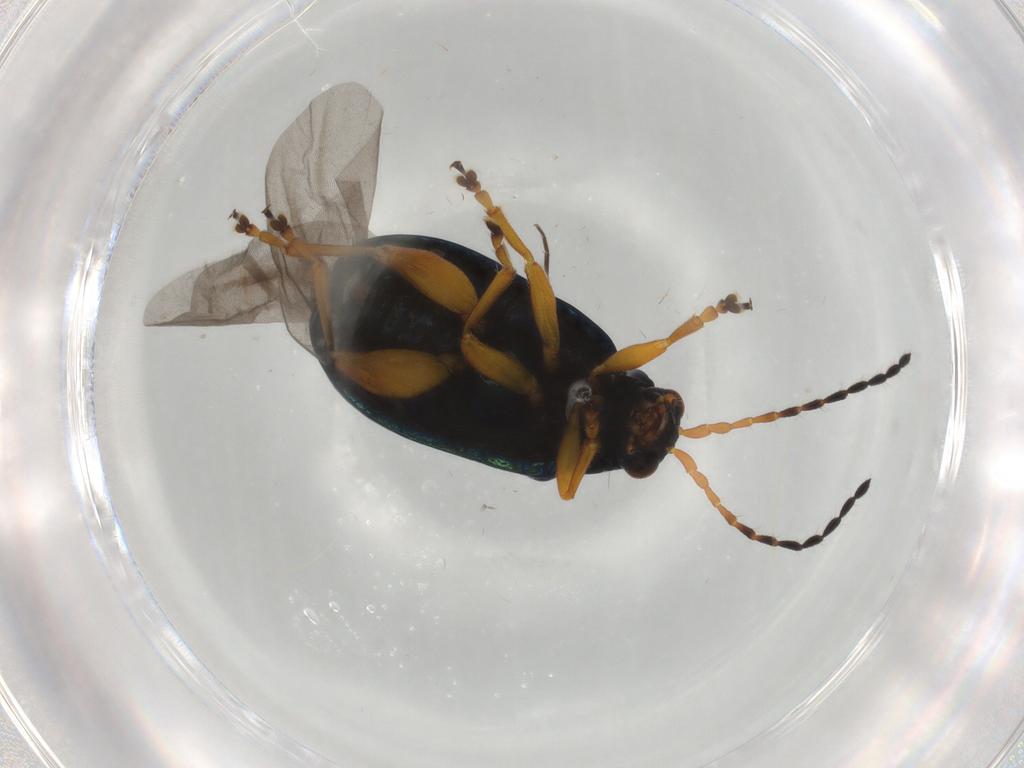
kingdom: Animalia
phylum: Arthropoda
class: Insecta
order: Coleoptera
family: Chrysomelidae
